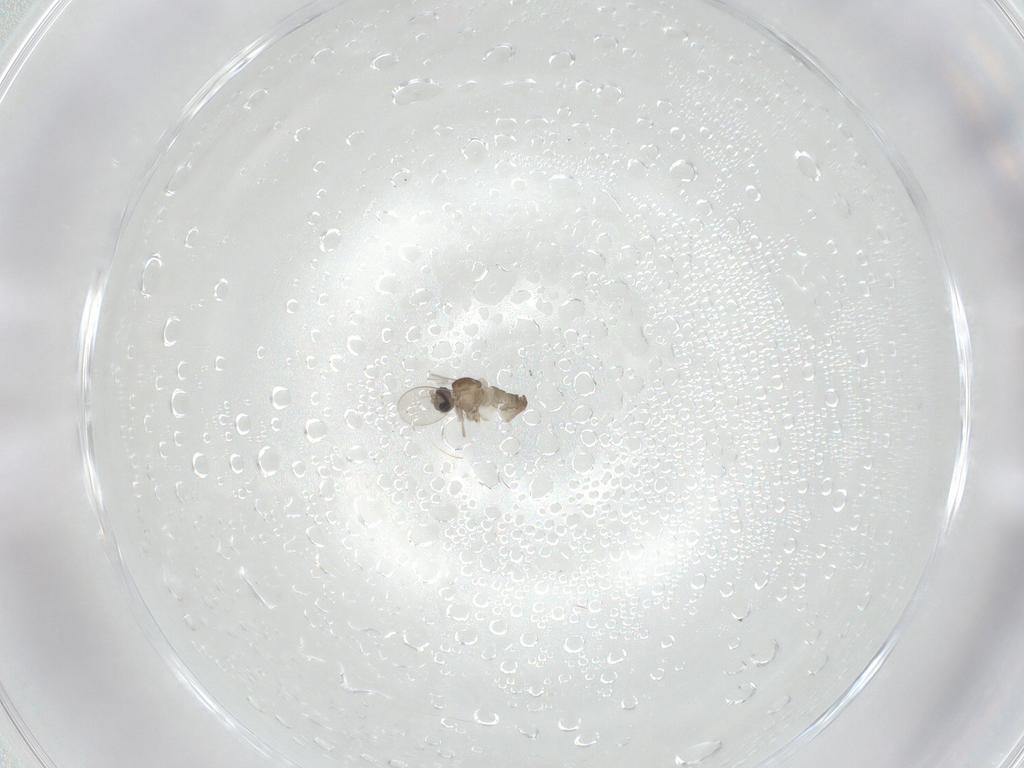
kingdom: Animalia
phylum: Arthropoda
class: Insecta
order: Diptera
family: Cecidomyiidae
